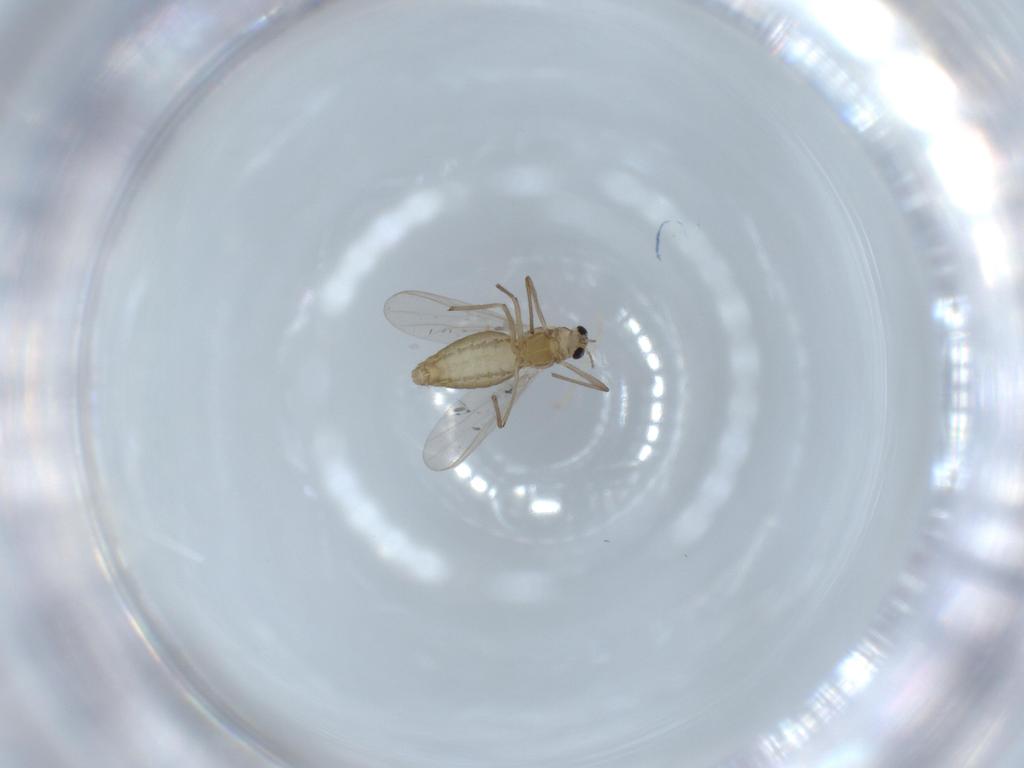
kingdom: Animalia
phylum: Arthropoda
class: Insecta
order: Diptera
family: Chironomidae
